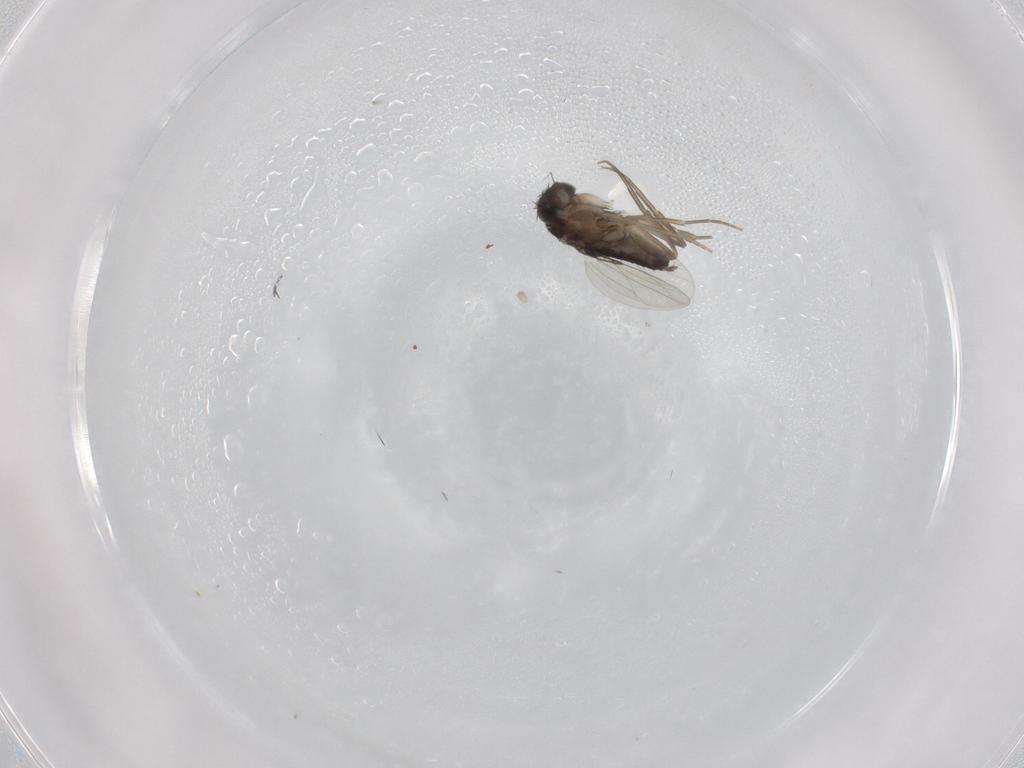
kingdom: Animalia
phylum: Arthropoda
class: Insecta
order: Diptera
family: Phoridae
